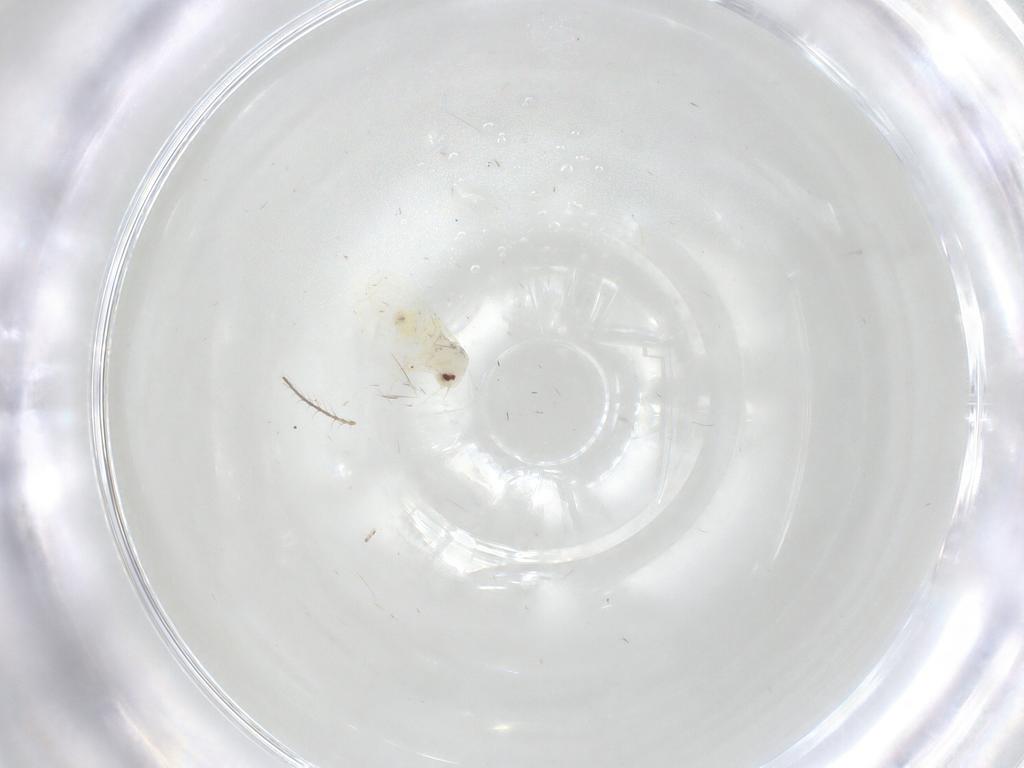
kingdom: Animalia
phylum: Arthropoda
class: Insecta
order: Hemiptera
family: Aleyrodidae
